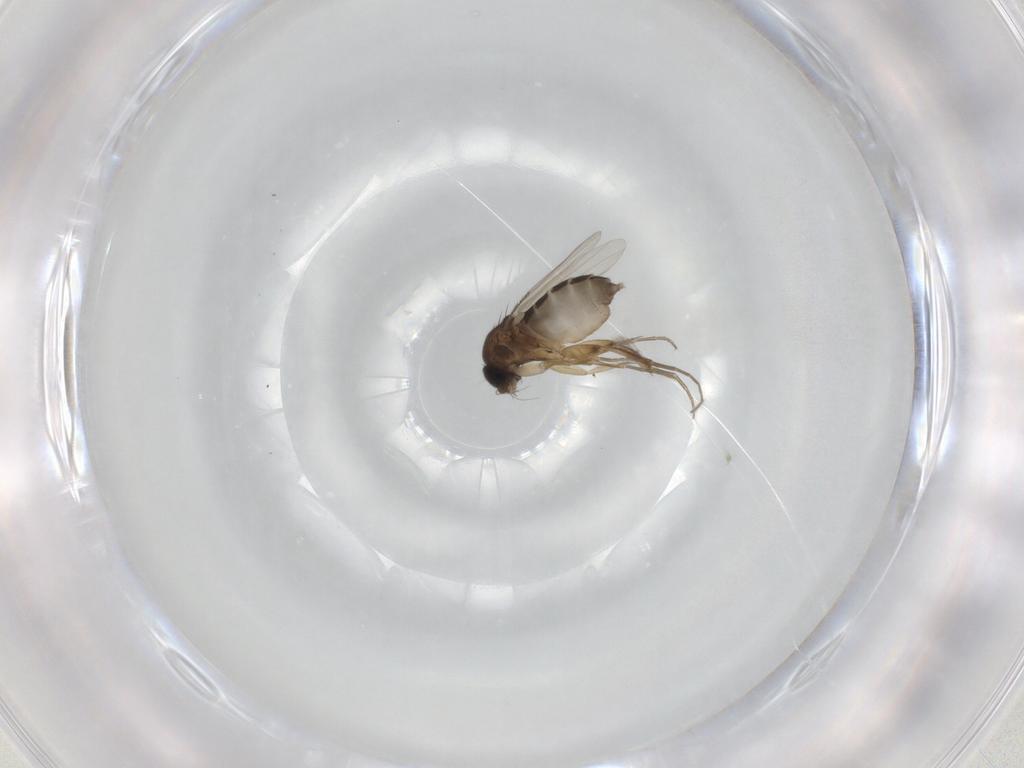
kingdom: Animalia
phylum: Arthropoda
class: Insecta
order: Diptera
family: Phoridae
